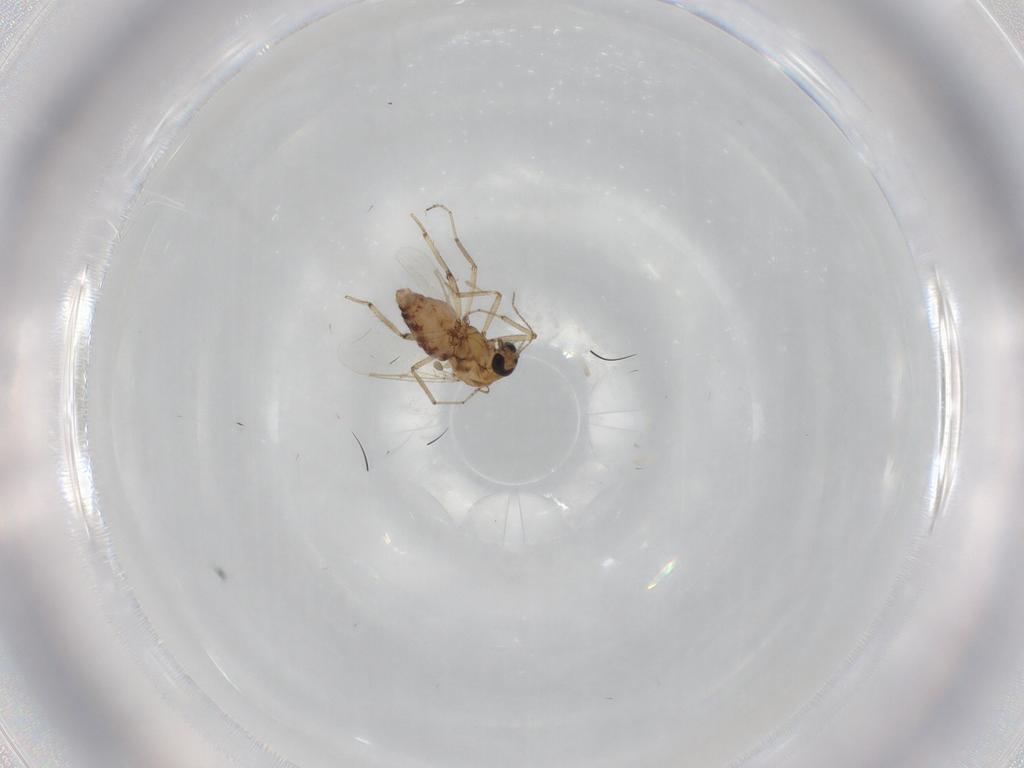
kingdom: Animalia
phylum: Arthropoda
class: Insecta
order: Diptera
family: Ceratopogonidae
